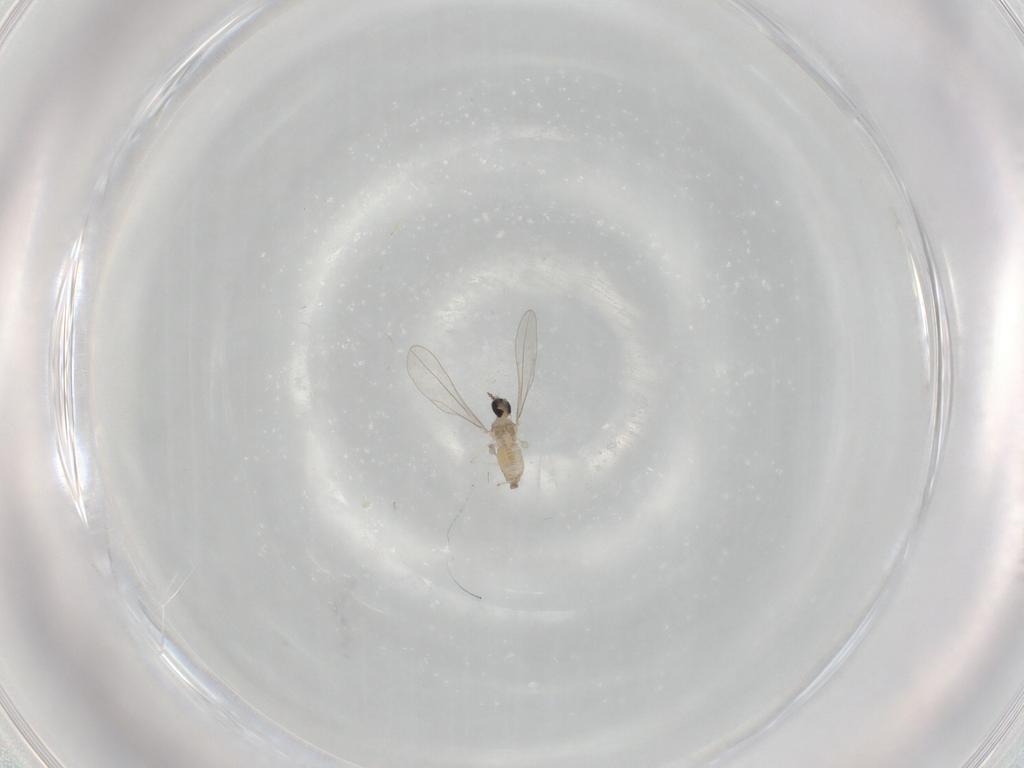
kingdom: Animalia
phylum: Arthropoda
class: Insecta
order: Diptera
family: Cecidomyiidae
